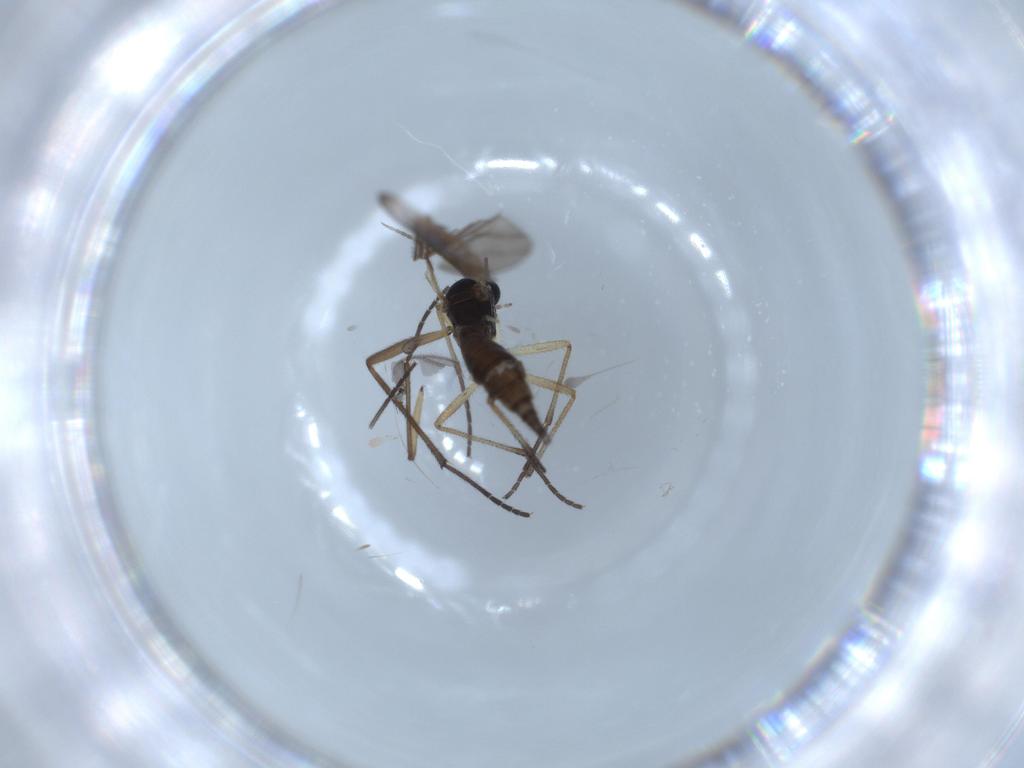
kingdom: Animalia
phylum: Arthropoda
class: Insecta
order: Diptera
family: Sciaridae
